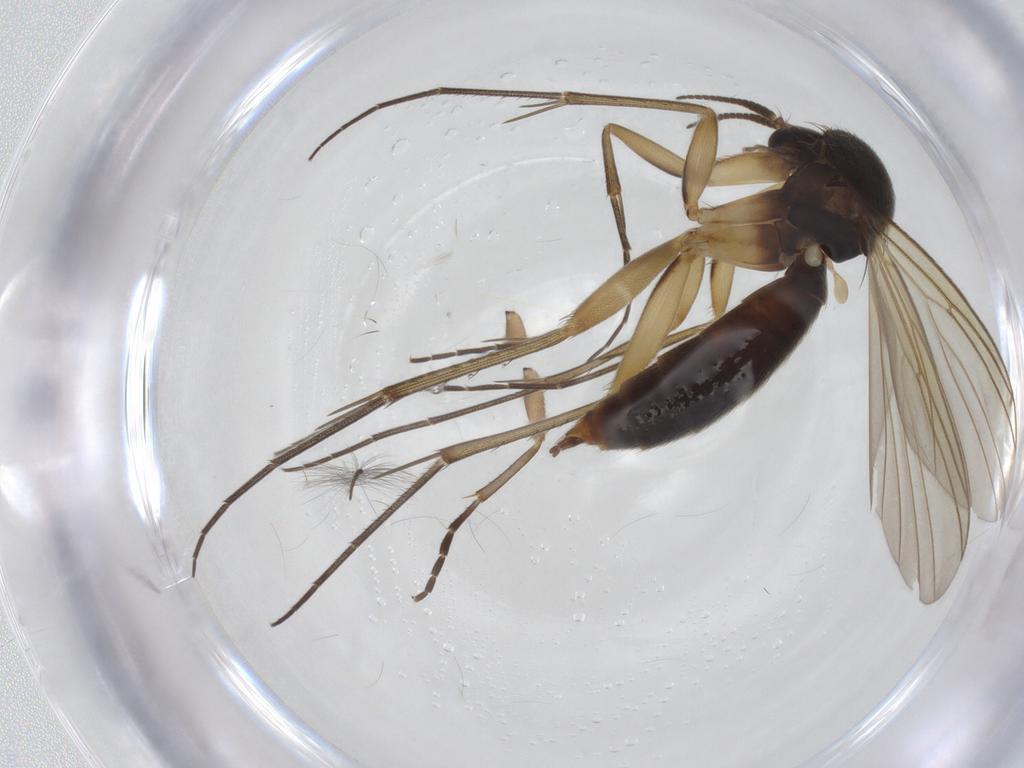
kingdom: Animalia
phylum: Arthropoda
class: Insecta
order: Diptera
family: Mycetophilidae
